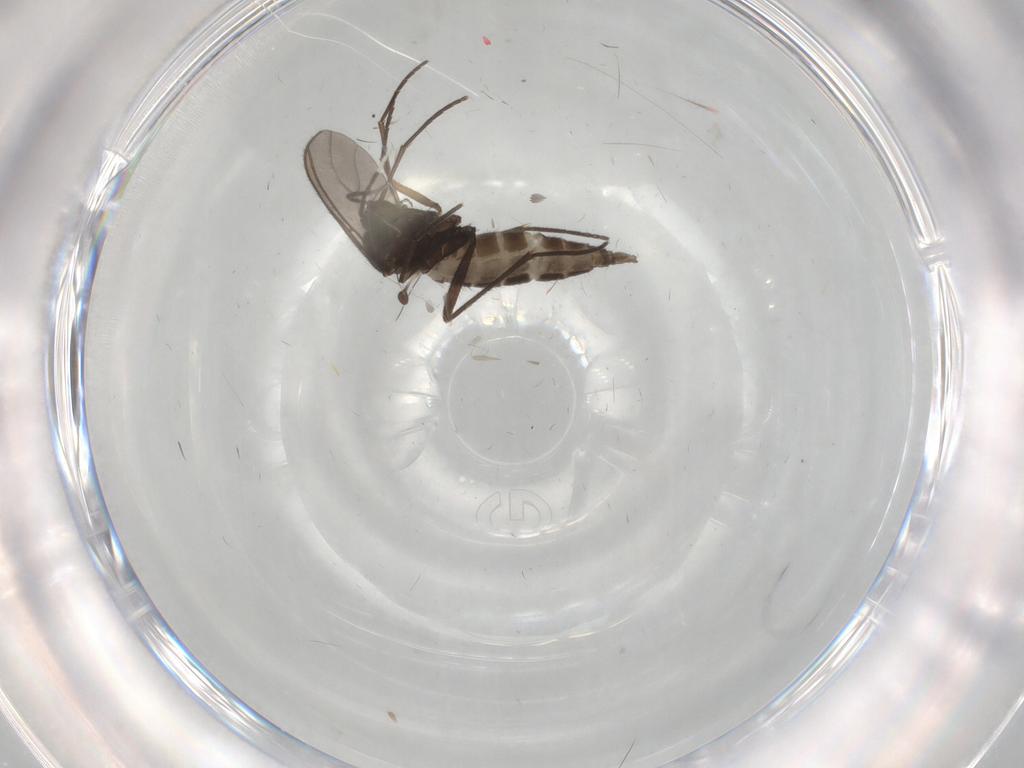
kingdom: Animalia
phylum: Arthropoda
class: Insecta
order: Diptera
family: Sciaridae
